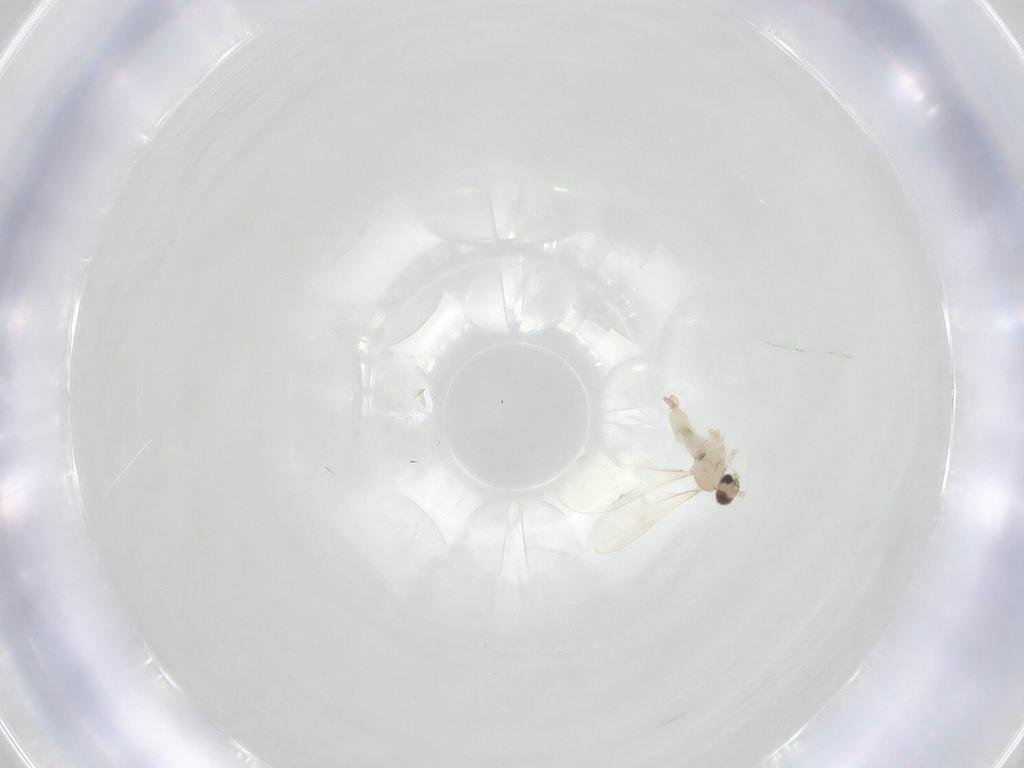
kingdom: Animalia
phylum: Arthropoda
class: Insecta
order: Diptera
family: Cecidomyiidae
